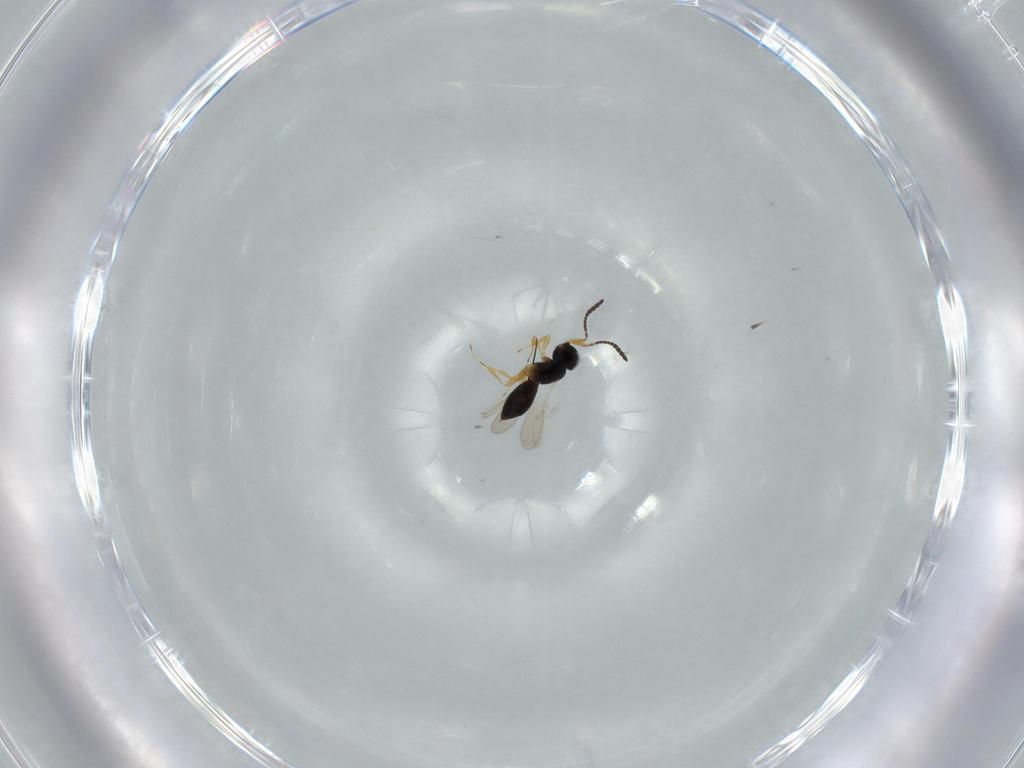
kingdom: Animalia
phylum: Arthropoda
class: Insecta
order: Hymenoptera
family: Scelionidae
